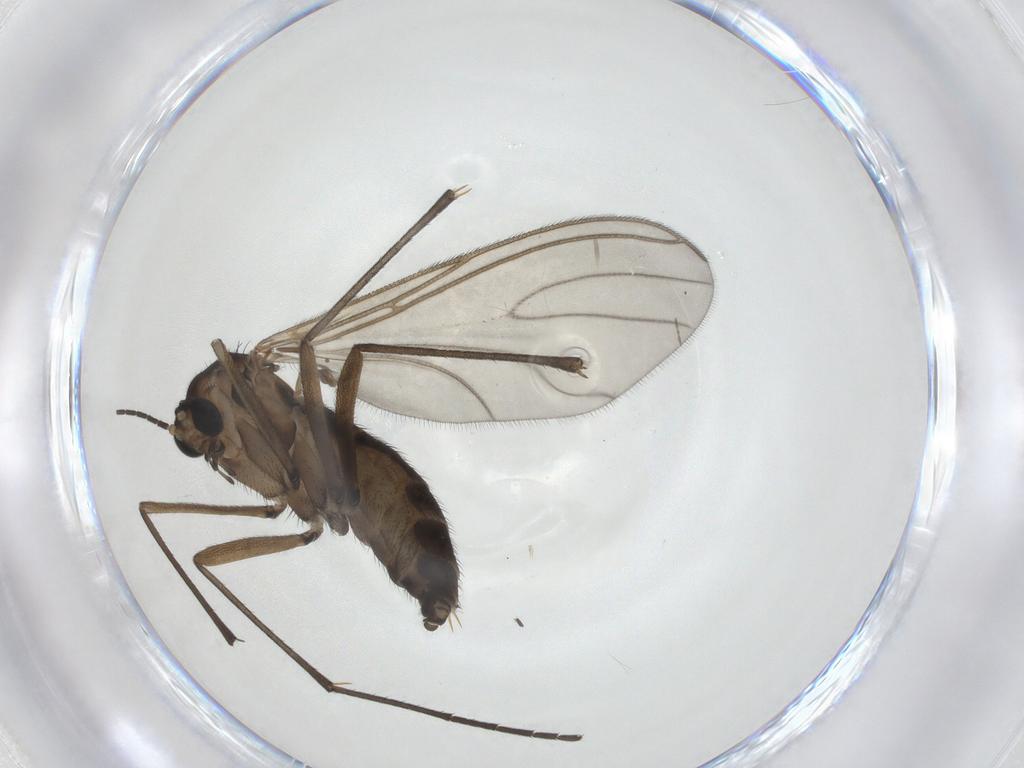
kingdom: Animalia
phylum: Arthropoda
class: Insecta
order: Diptera
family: Sciaridae
